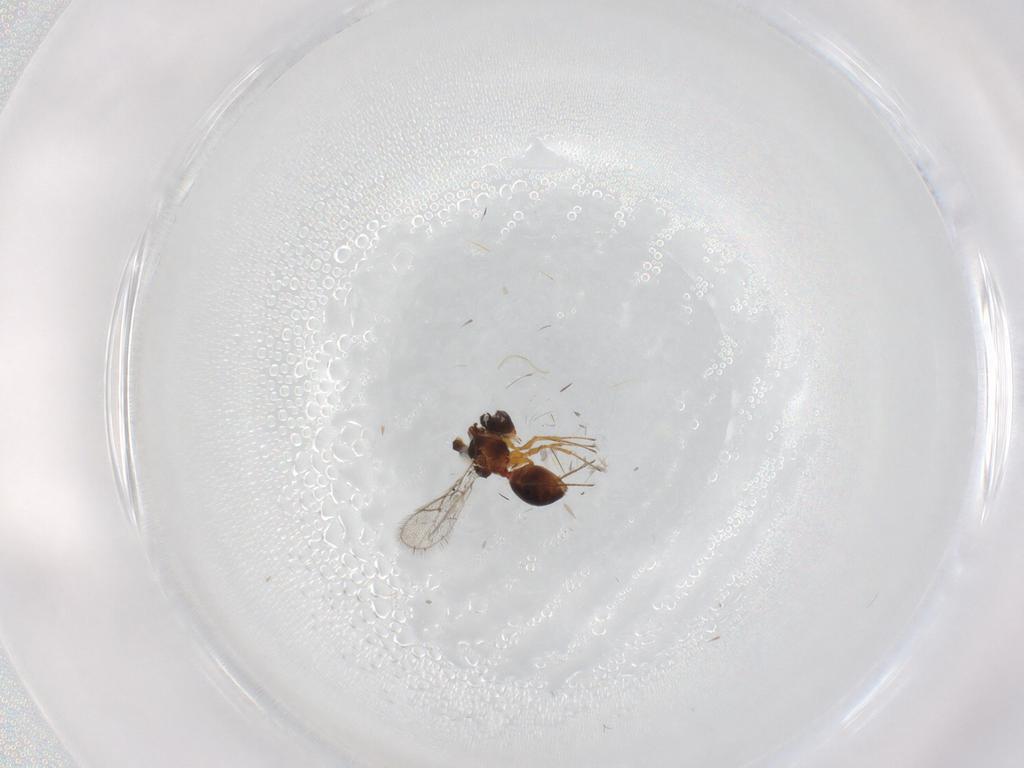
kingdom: Animalia
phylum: Arthropoda
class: Insecta
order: Hymenoptera
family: Figitidae
